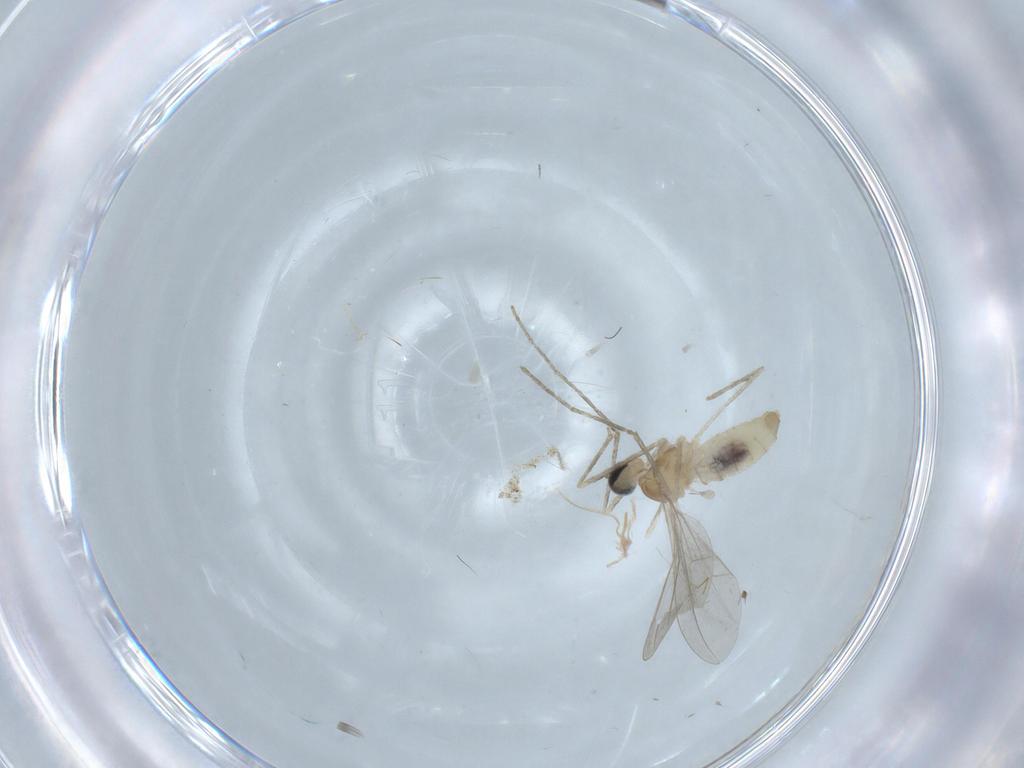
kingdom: Animalia
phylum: Arthropoda
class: Insecta
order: Diptera
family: Cecidomyiidae
